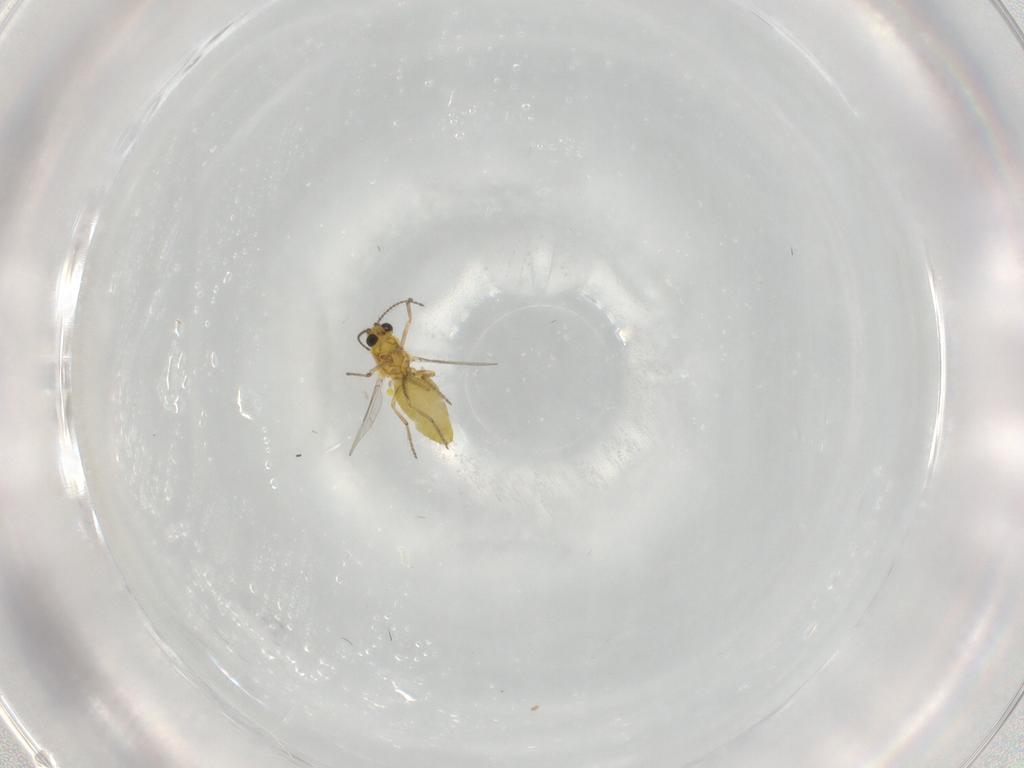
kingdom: Animalia
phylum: Arthropoda
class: Insecta
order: Diptera
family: Ceratopogonidae
